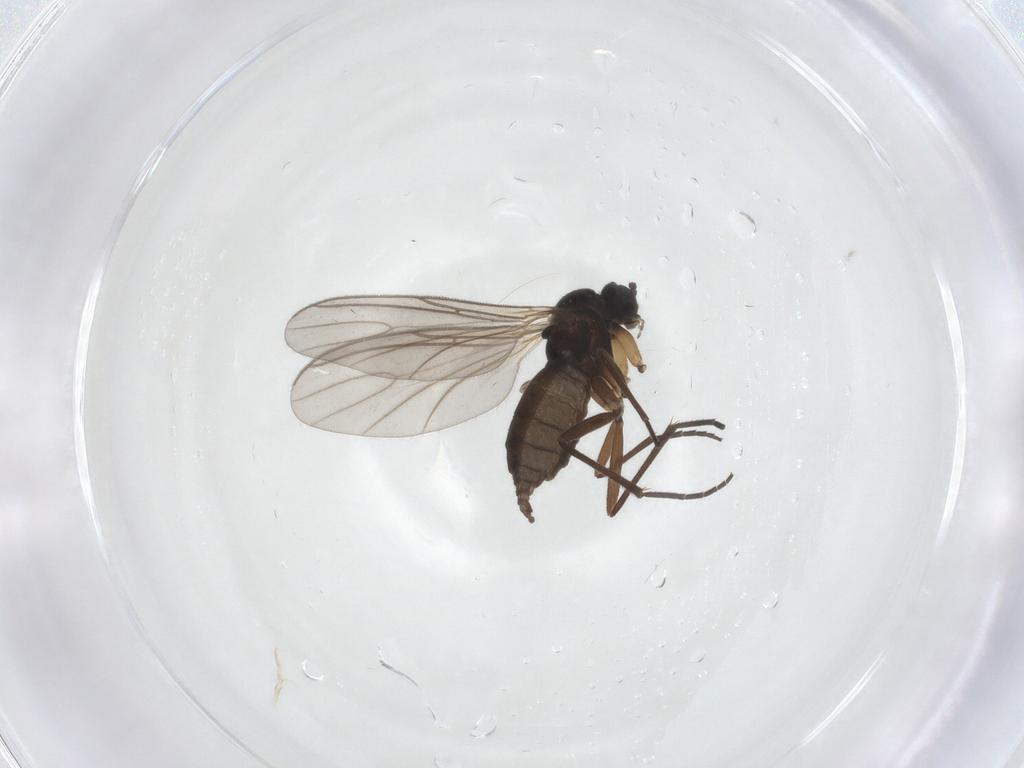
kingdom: Animalia
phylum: Arthropoda
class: Insecta
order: Diptera
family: Sciaridae
